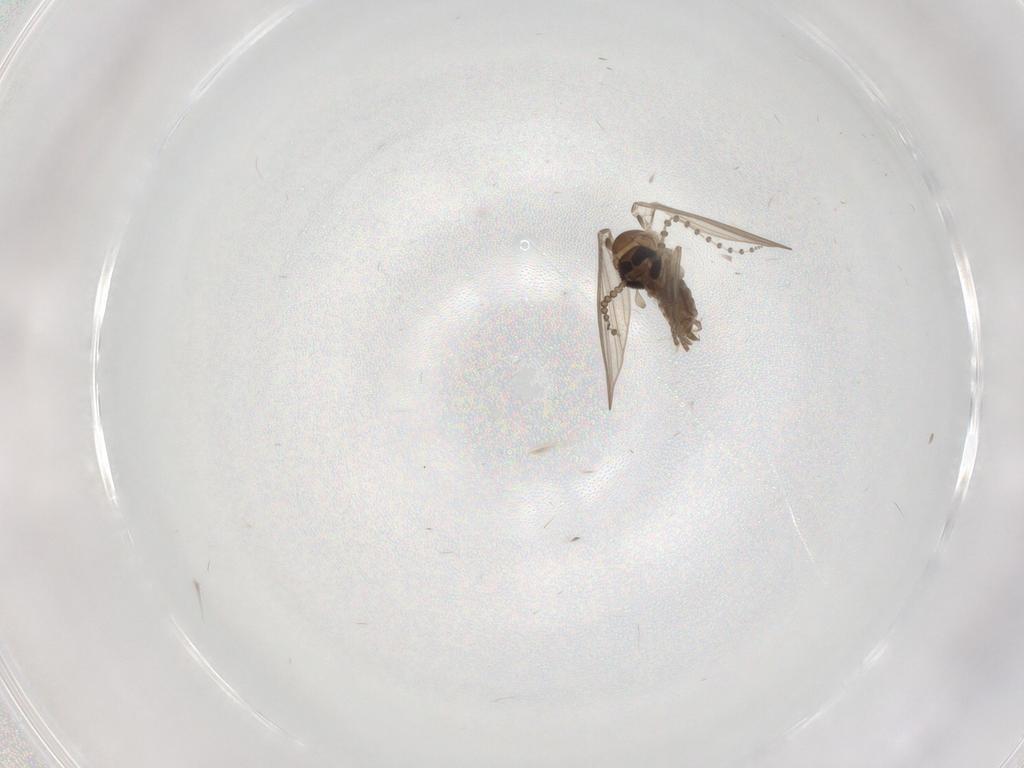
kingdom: Animalia
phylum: Arthropoda
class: Insecta
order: Diptera
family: Psychodidae
